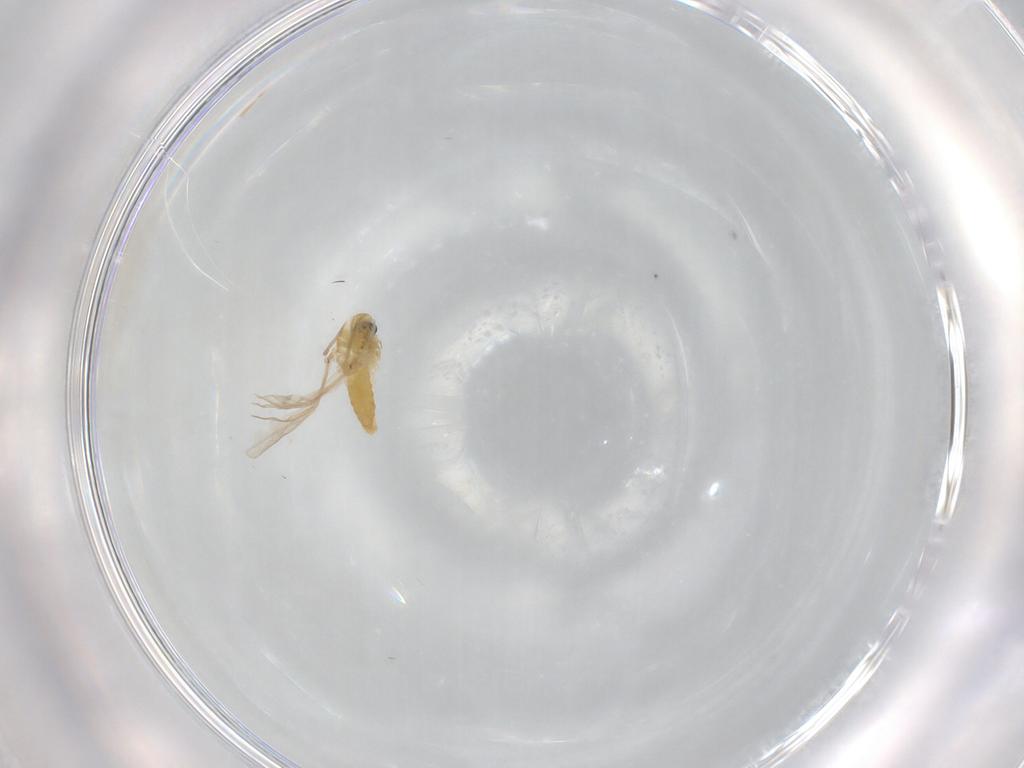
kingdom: Animalia
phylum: Arthropoda
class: Insecta
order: Diptera
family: Chironomidae
